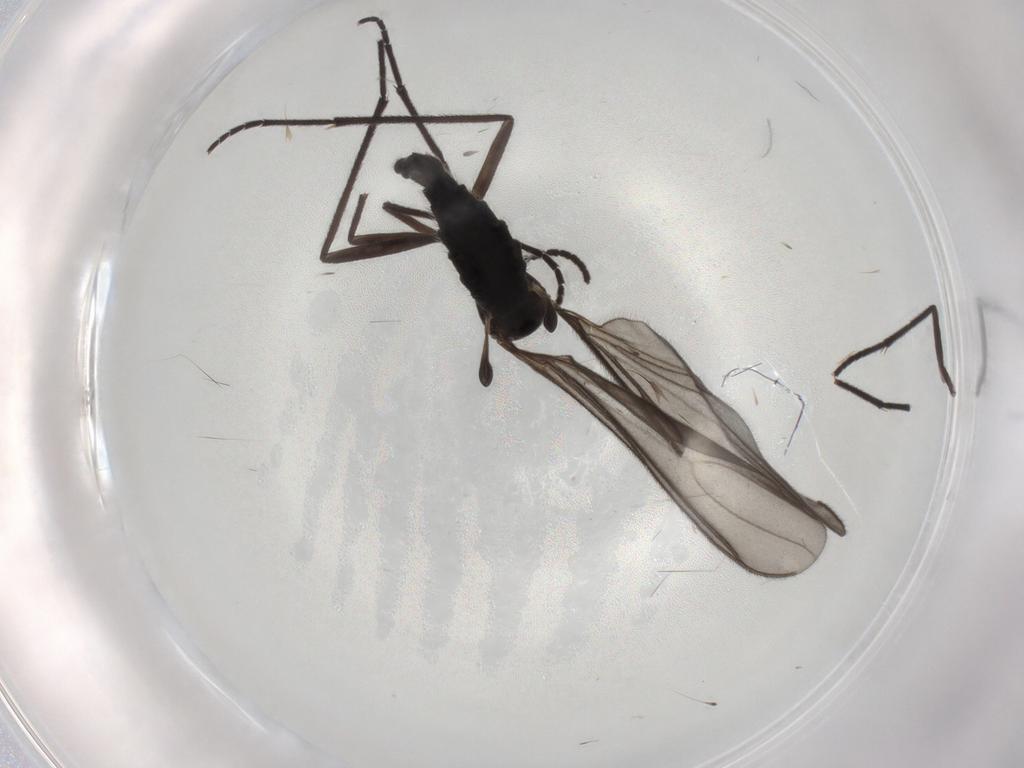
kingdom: Animalia
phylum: Arthropoda
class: Insecta
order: Diptera
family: Sciaridae
